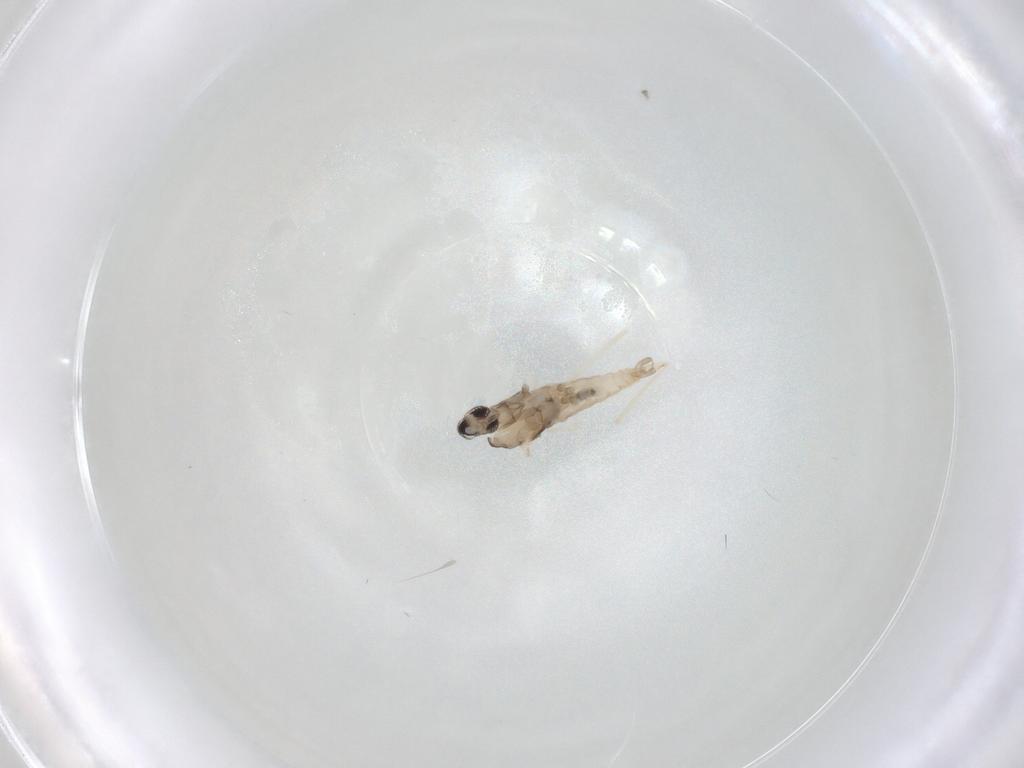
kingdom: Animalia
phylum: Arthropoda
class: Insecta
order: Diptera
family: Cecidomyiidae
